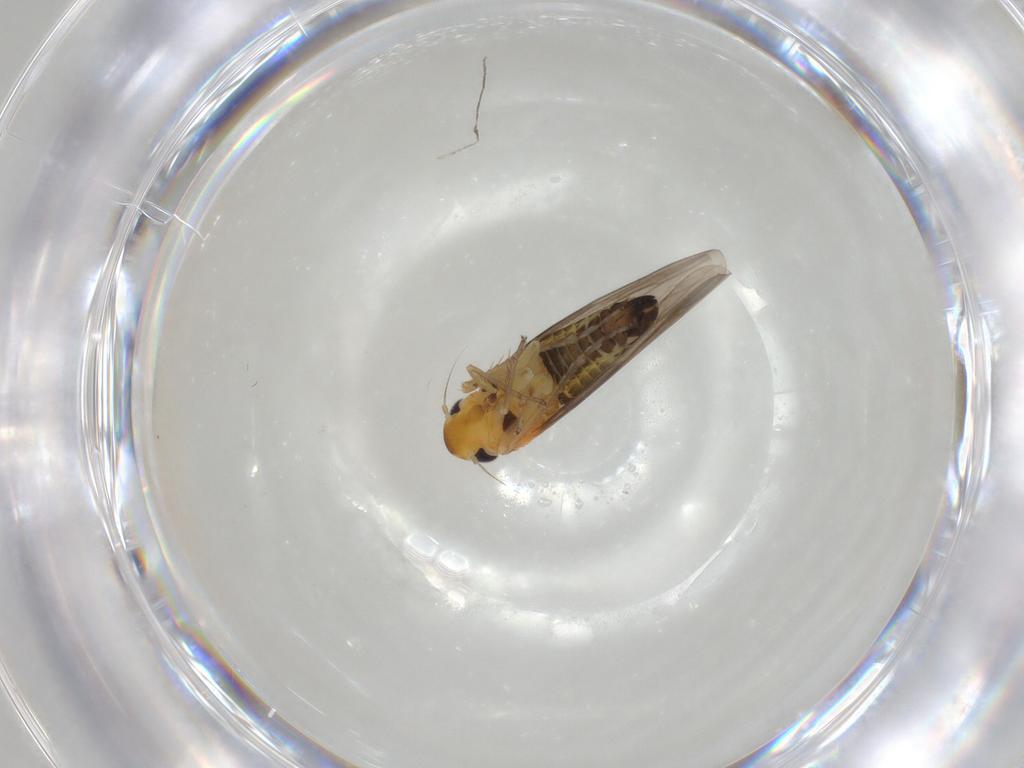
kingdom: Animalia
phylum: Arthropoda
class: Insecta
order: Hemiptera
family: Cicadellidae
